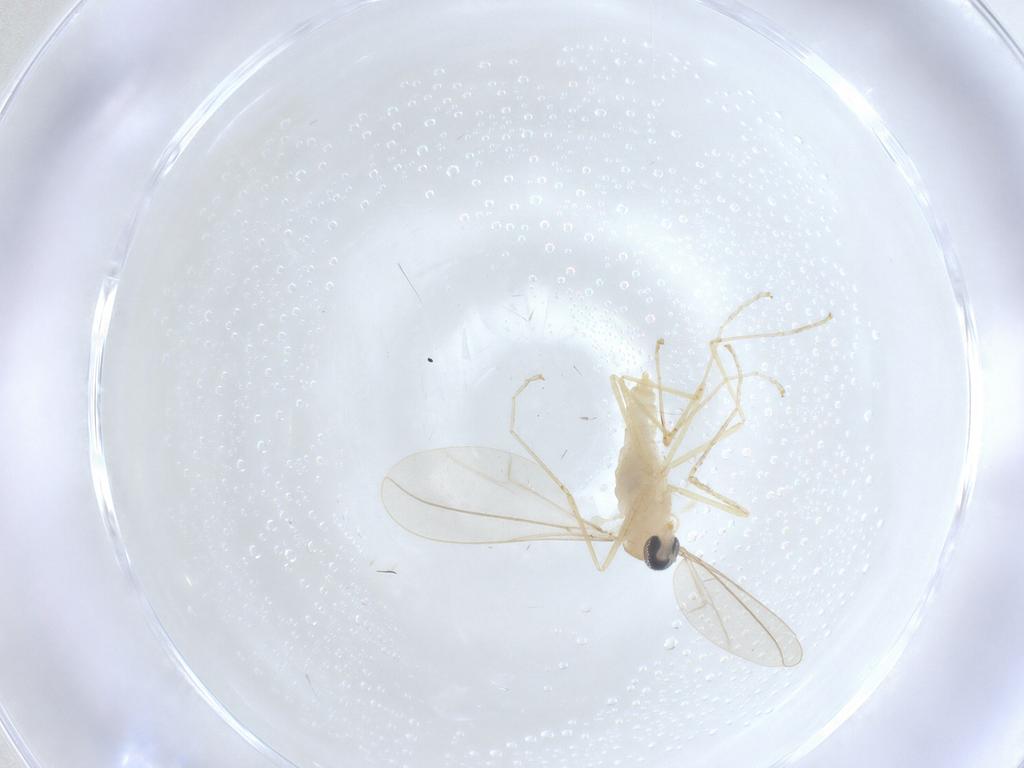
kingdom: Animalia
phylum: Arthropoda
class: Insecta
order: Diptera
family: Cecidomyiidae
